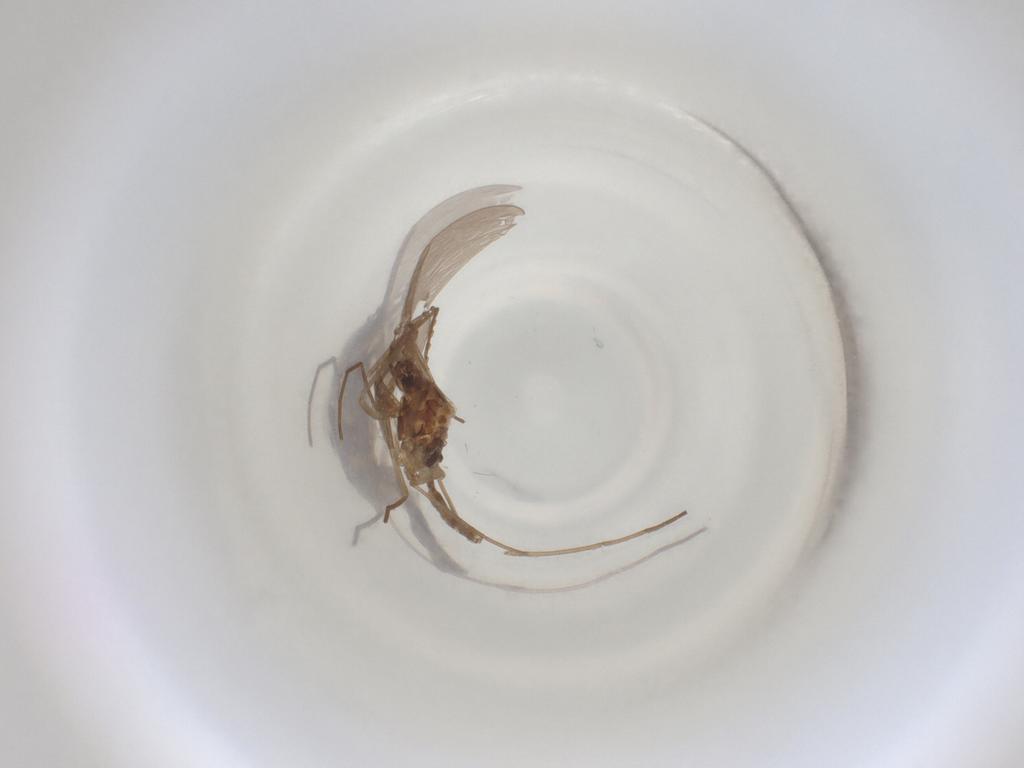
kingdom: Animalia
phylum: Arthropoda
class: Insecta
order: Diptera
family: Cecidomyiidae
